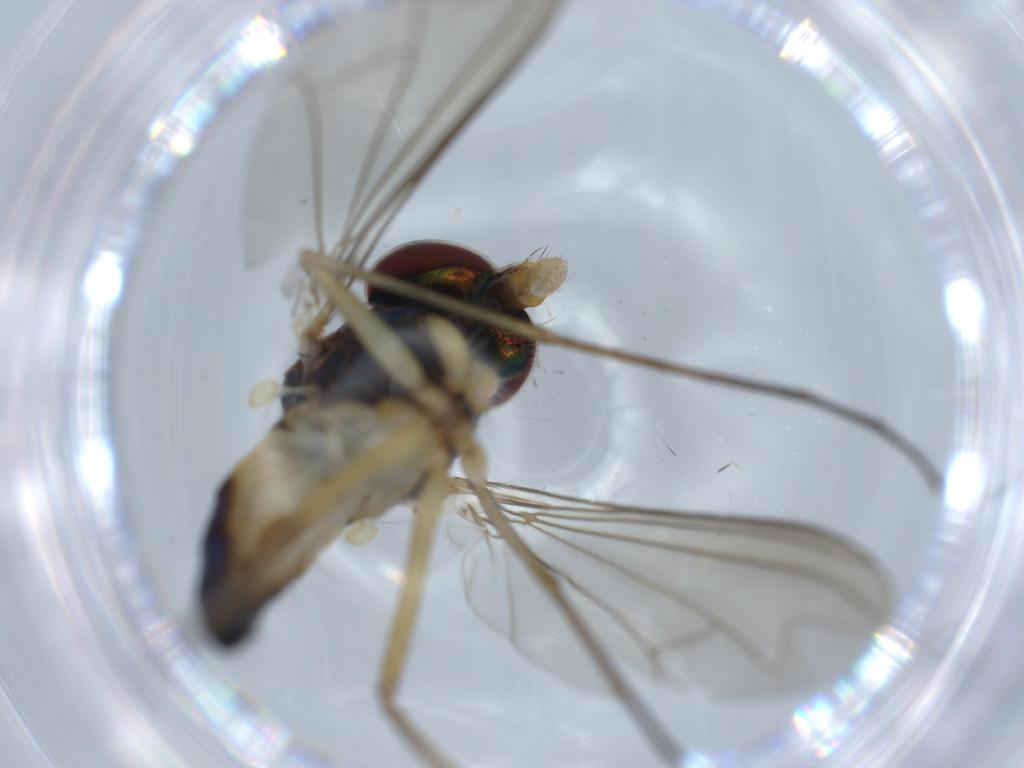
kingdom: Animalia
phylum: Arthropoda
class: Insecta
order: Diptera
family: Dolichopodidae
